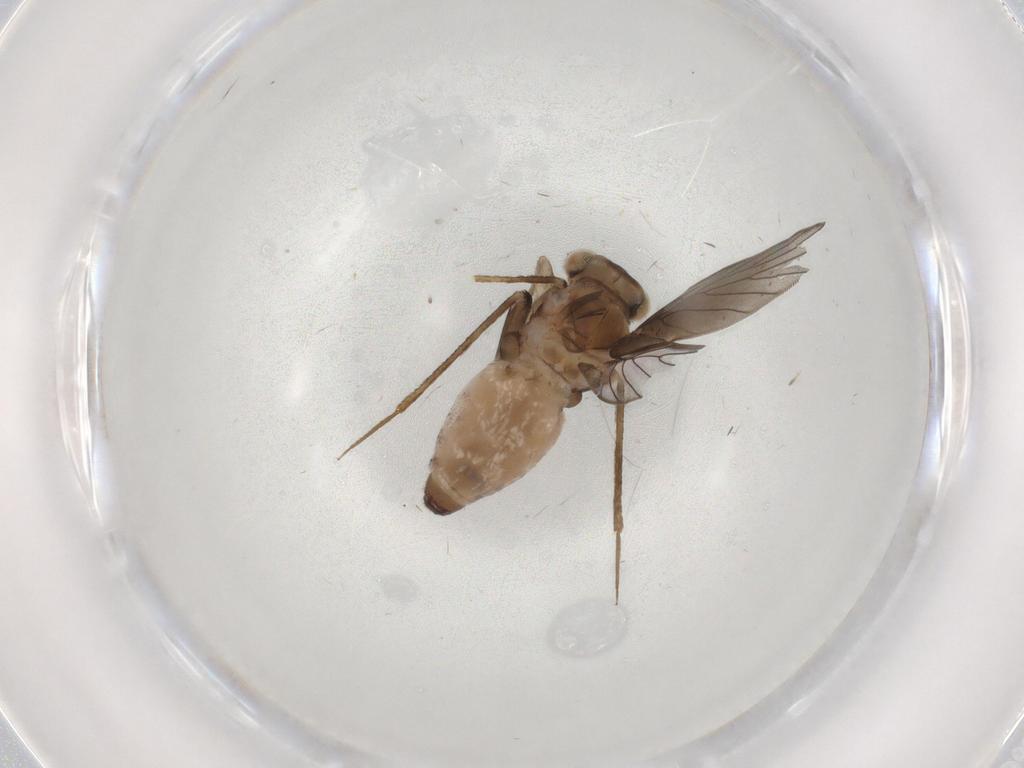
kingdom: Animalia
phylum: Arthropoda
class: Insecta
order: Psocodea
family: Lepidopsocidae
